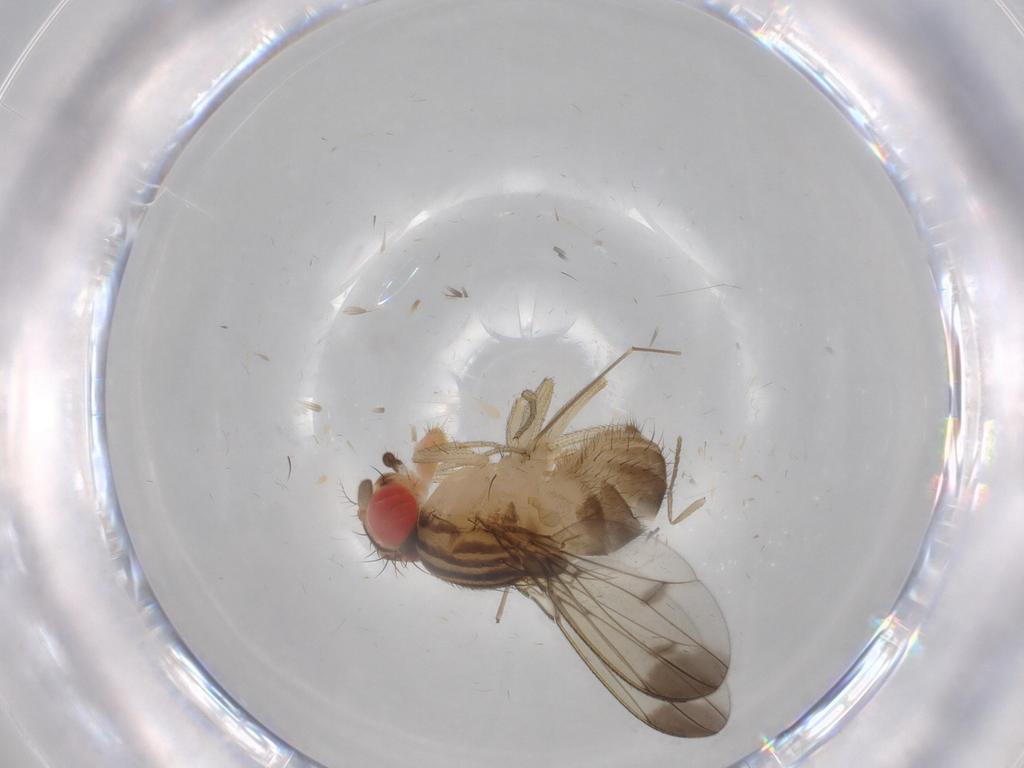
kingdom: Animalia
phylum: Arthropoda
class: Insecta
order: Diptera
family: Drosophilidae
